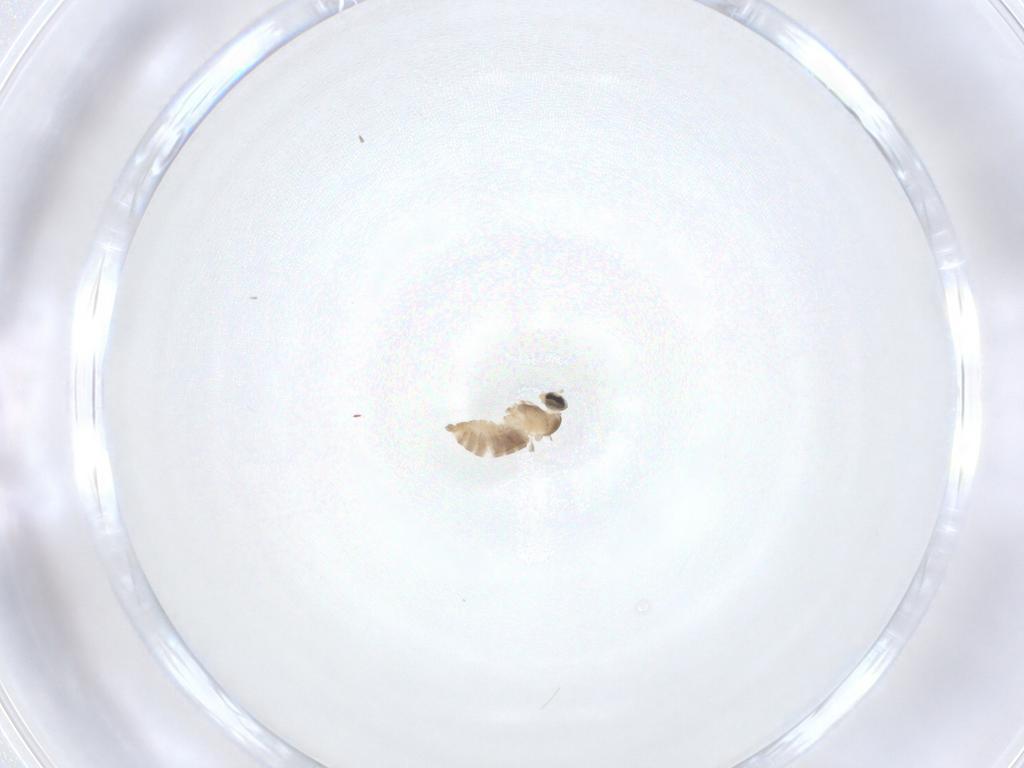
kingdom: Animalia
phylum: Arthropoda
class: Insecta
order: Diptera
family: Cecidomyiidae
